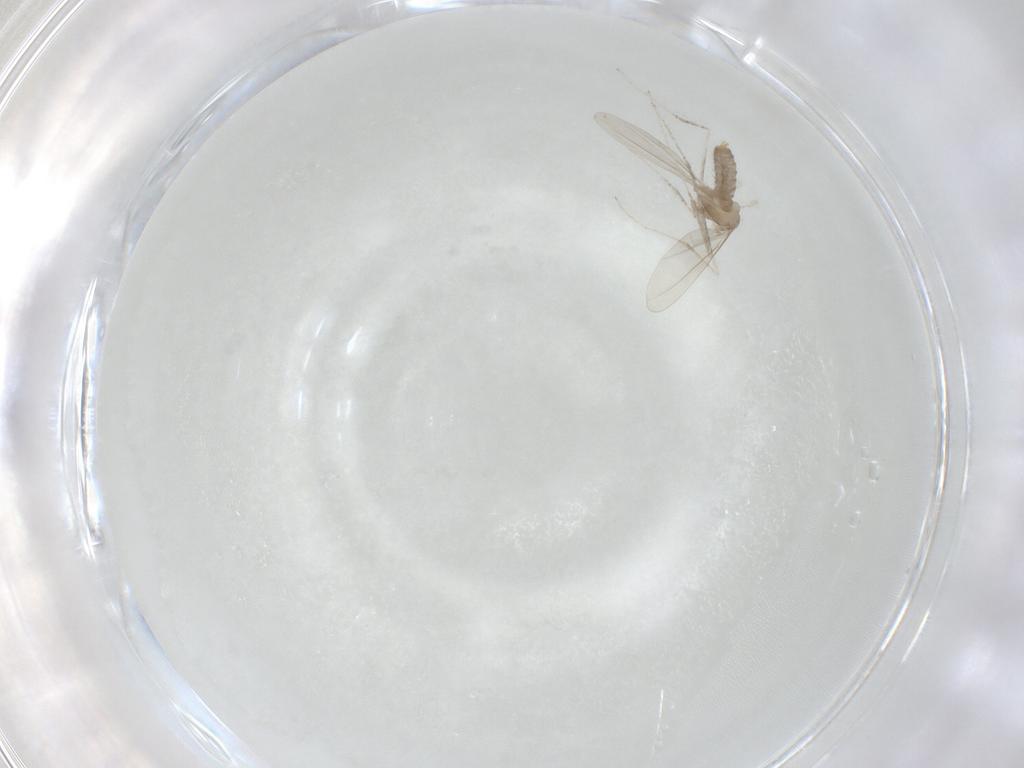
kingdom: Animalia
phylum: Arthropoda
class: Insecta
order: Diptera
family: Cecidomyiidae
